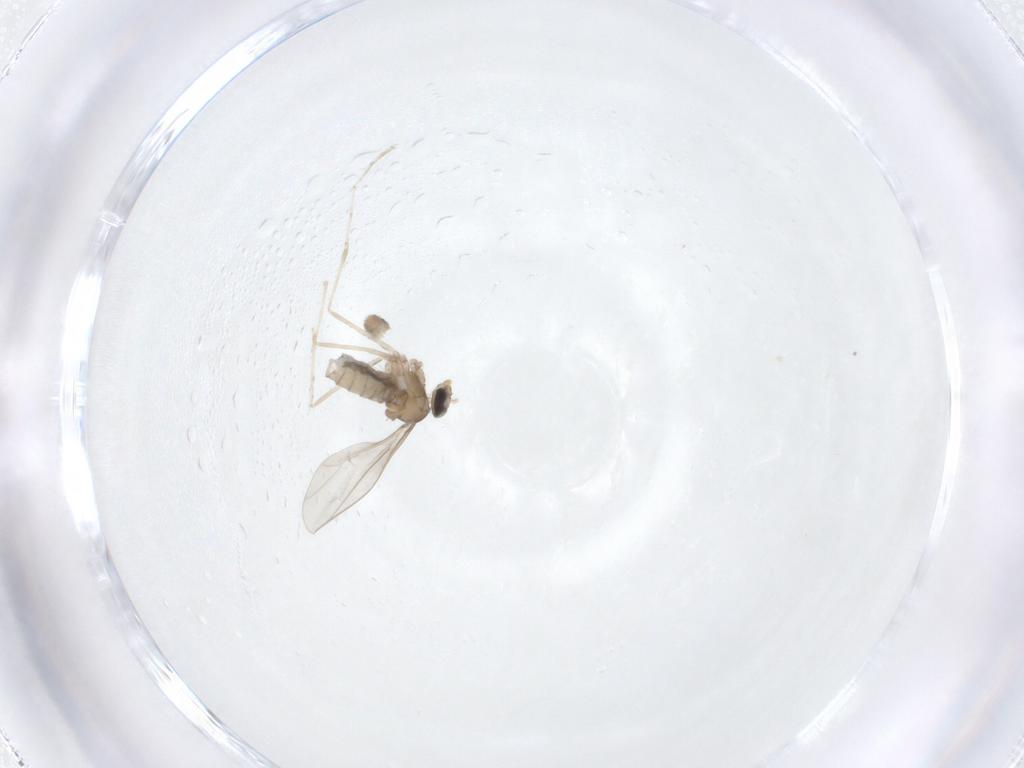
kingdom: Animalia
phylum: Arthropoda
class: Insecta
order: Diptera
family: Cecidomyiidae
